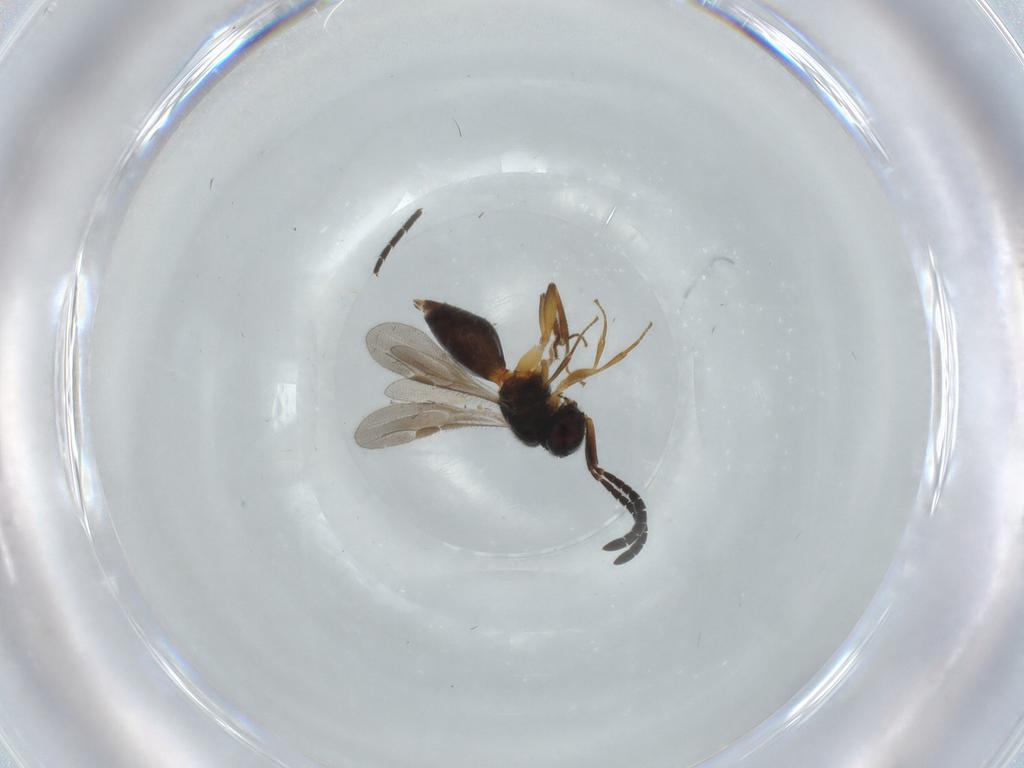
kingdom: Animalia
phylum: Arthropoda
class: Insecta
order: Hymenoptera
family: Megaspilidae
